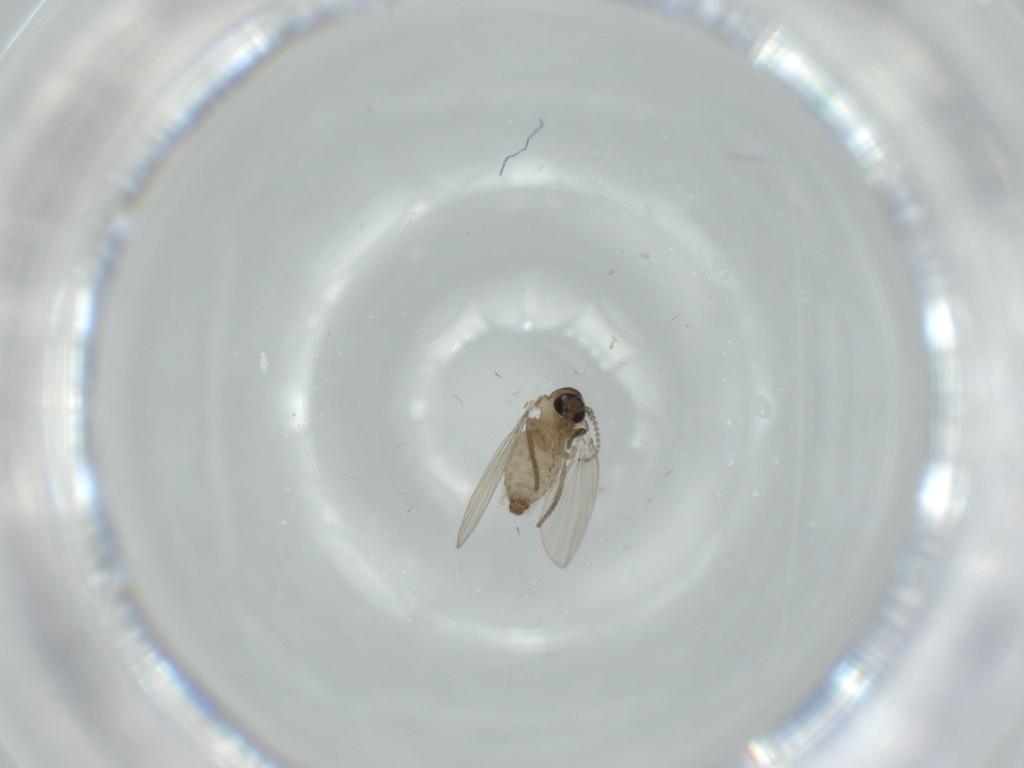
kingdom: Animalia
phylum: Arthropoda
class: Insecta
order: Diptera
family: Psychodidae
